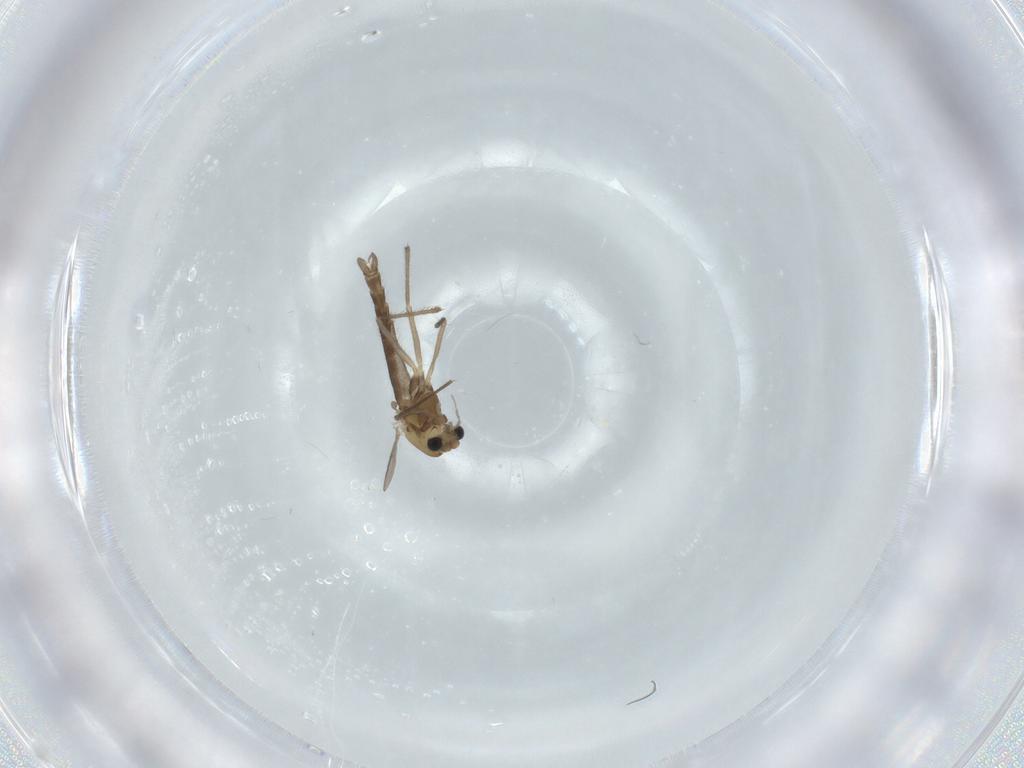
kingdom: Animalia
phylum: Arthropoda
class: Insecta
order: Diptera
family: Chironomidae
